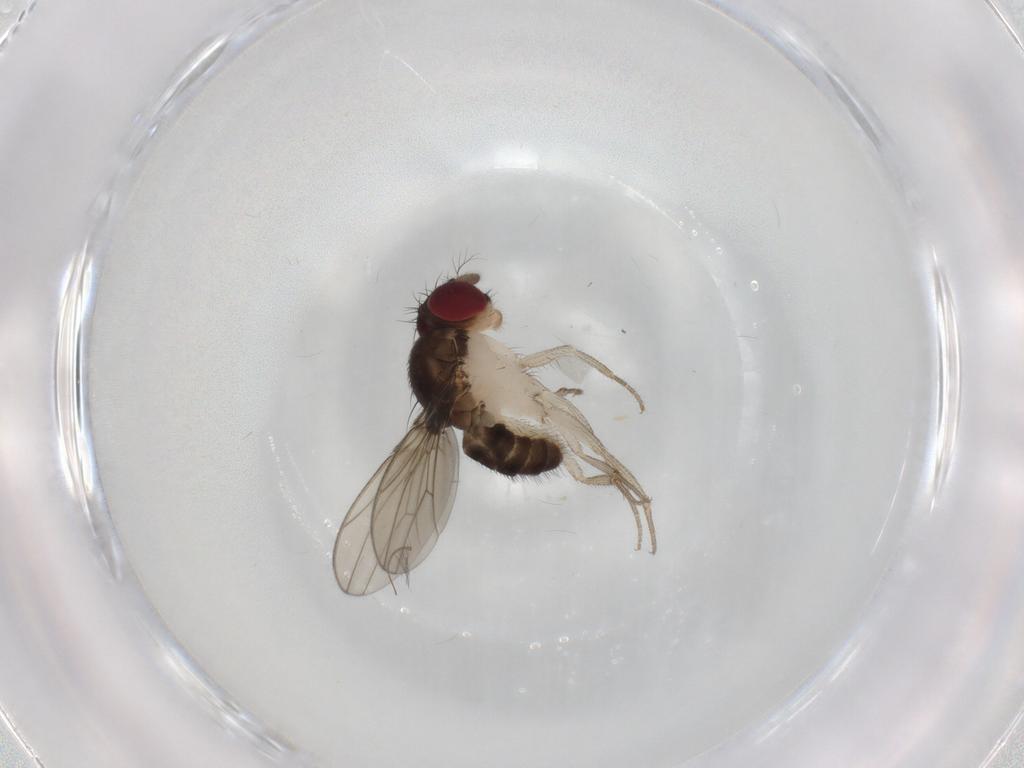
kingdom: Animalia
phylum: Arthropoda
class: Insecta
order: Diptera
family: Drosophilidae
